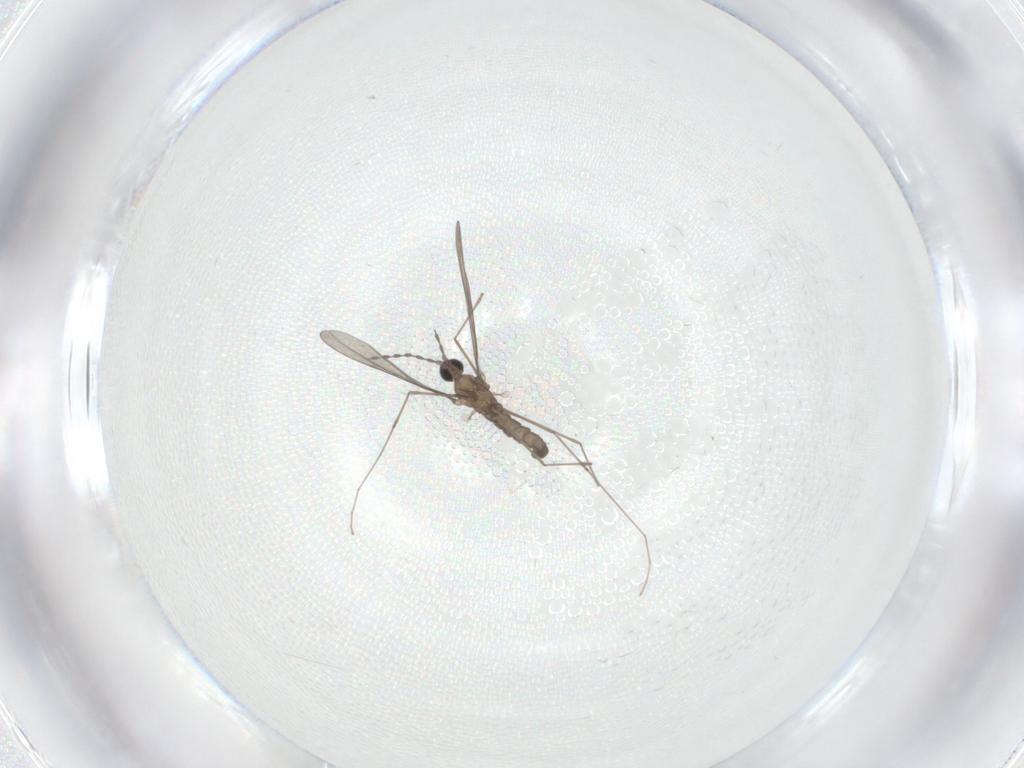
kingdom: Animalia
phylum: Arthropoda
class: Insecta
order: Diptera
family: Cecidomyiidae
